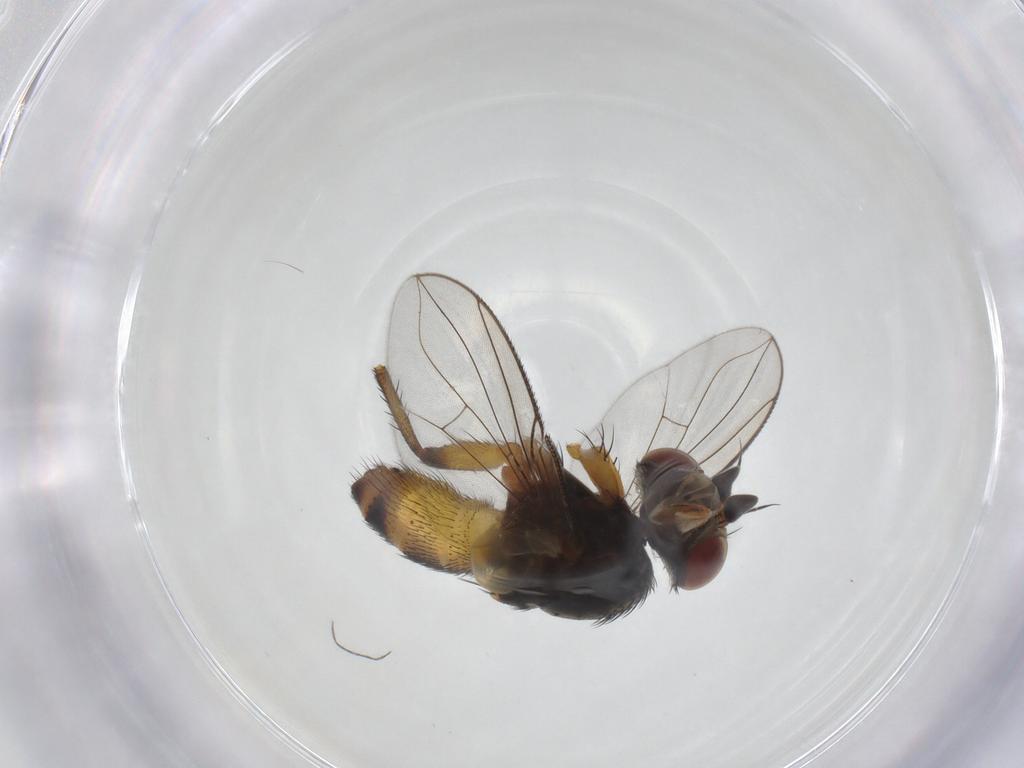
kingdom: Animalia
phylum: Arthropoda
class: Insecta
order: Diptera
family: Tachinidae
